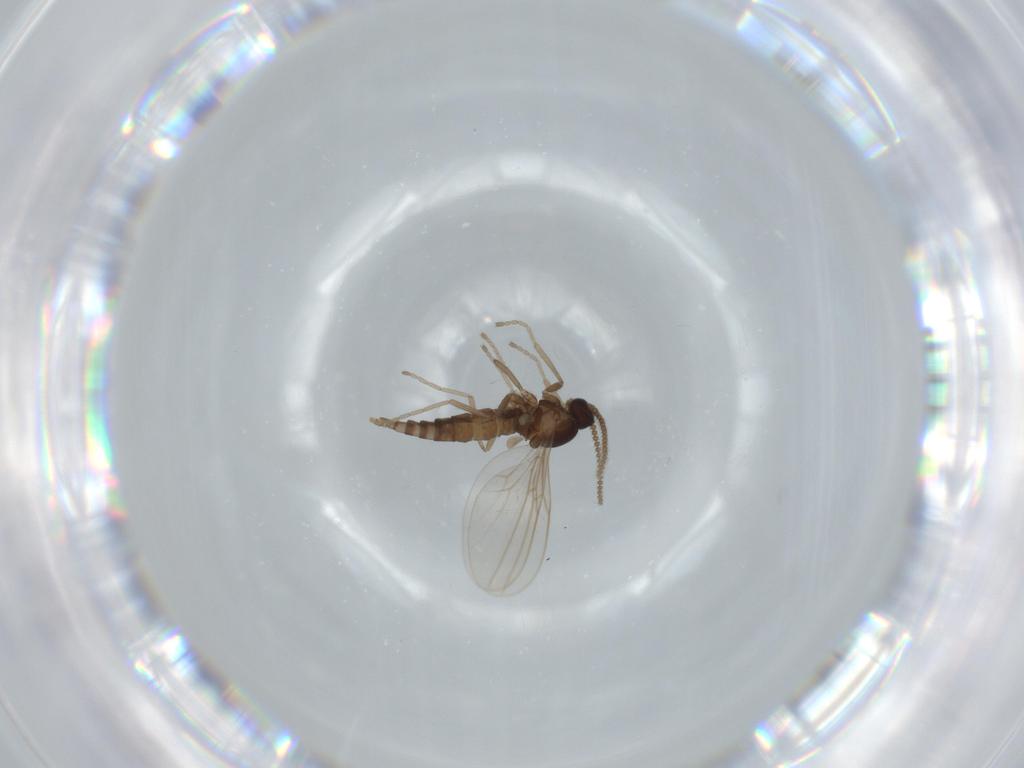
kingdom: Animalia
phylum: Arthropoda
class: Insecta
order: Diptera
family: Cecidomyiidae
